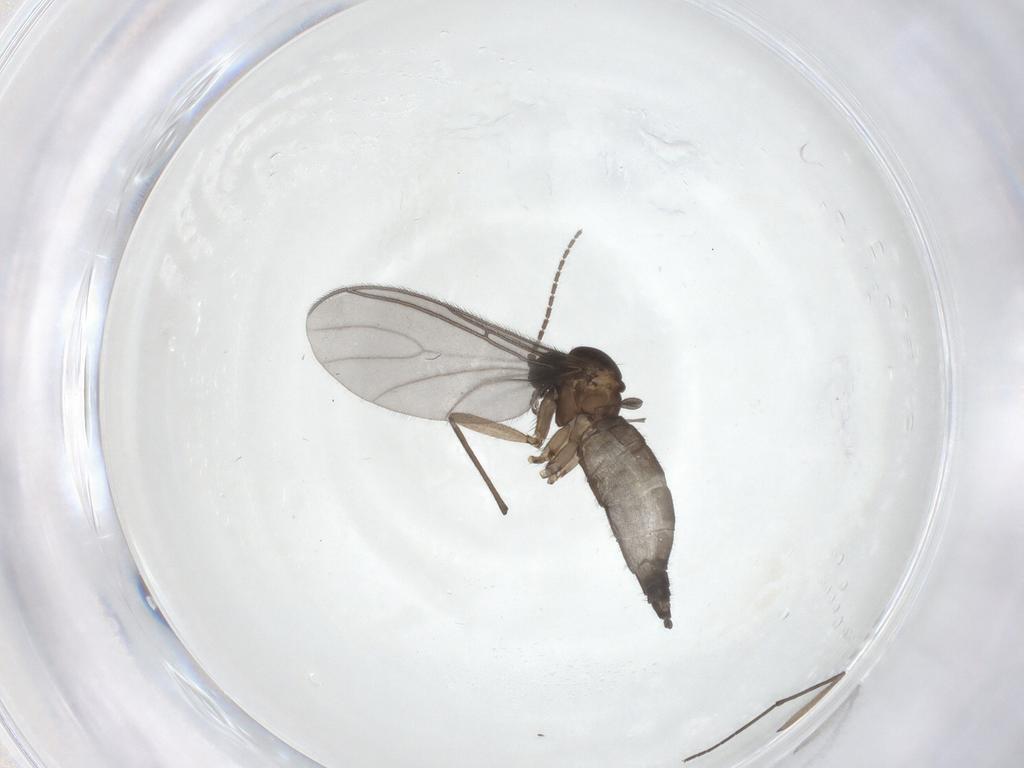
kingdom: Animalia
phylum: Arthropoda
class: Insecta
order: Diptera
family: Sciaridae
